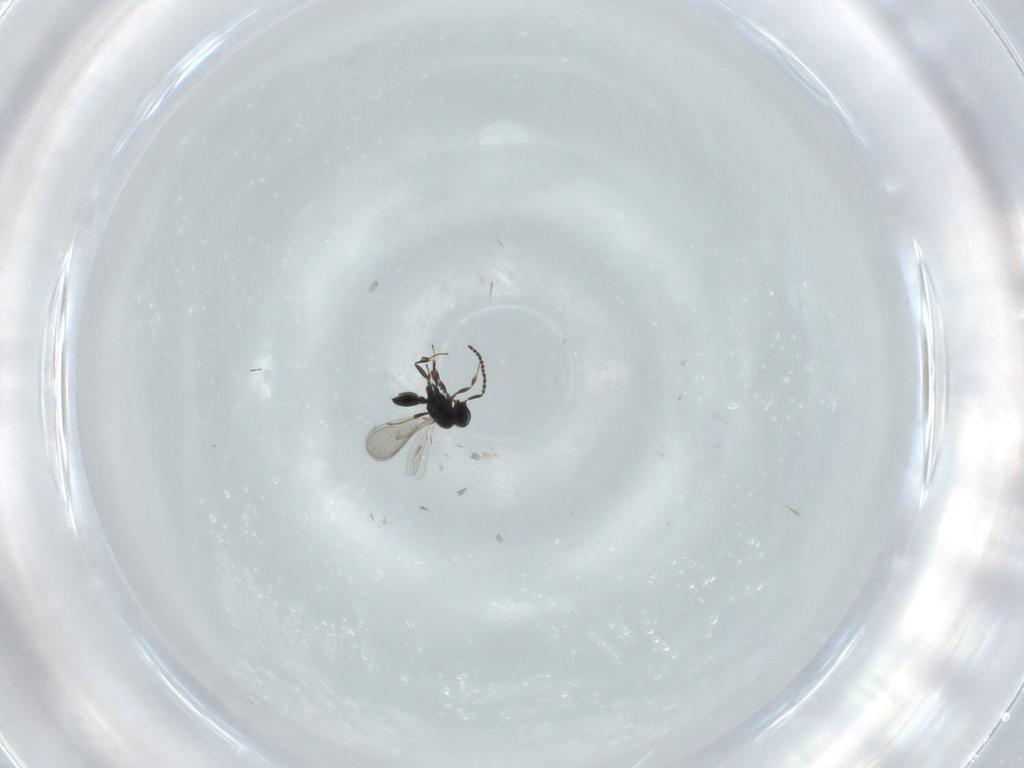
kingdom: Animalia
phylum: Arthropoda
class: Insecta
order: Hymenoptera
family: Scelionidae
